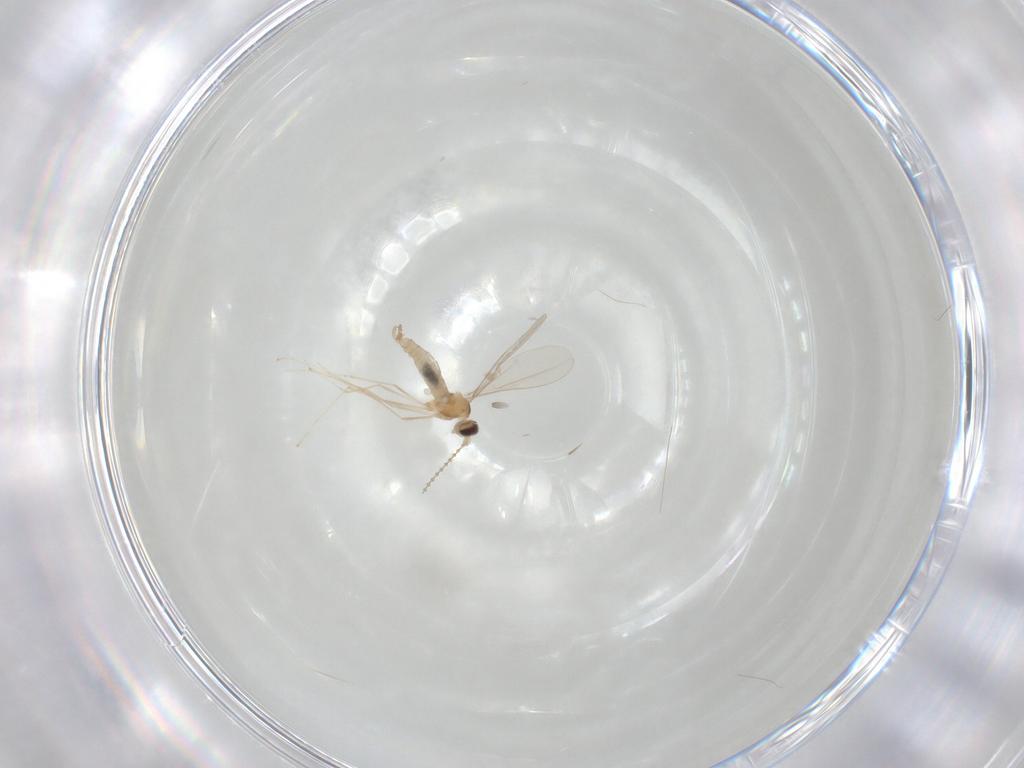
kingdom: Animalia
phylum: Arthropoda
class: Insecta
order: Diptera
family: Cecidomyiidae
